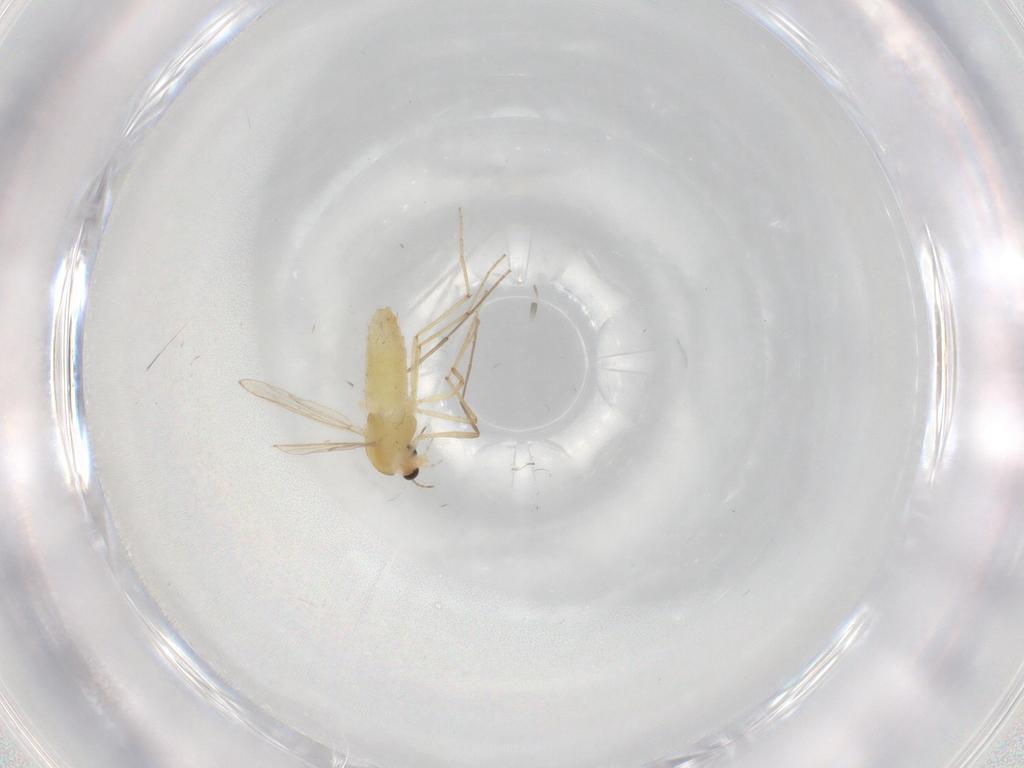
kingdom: Animalia
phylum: Arthropoda
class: Insecta
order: Diptera
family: Chironomidae
